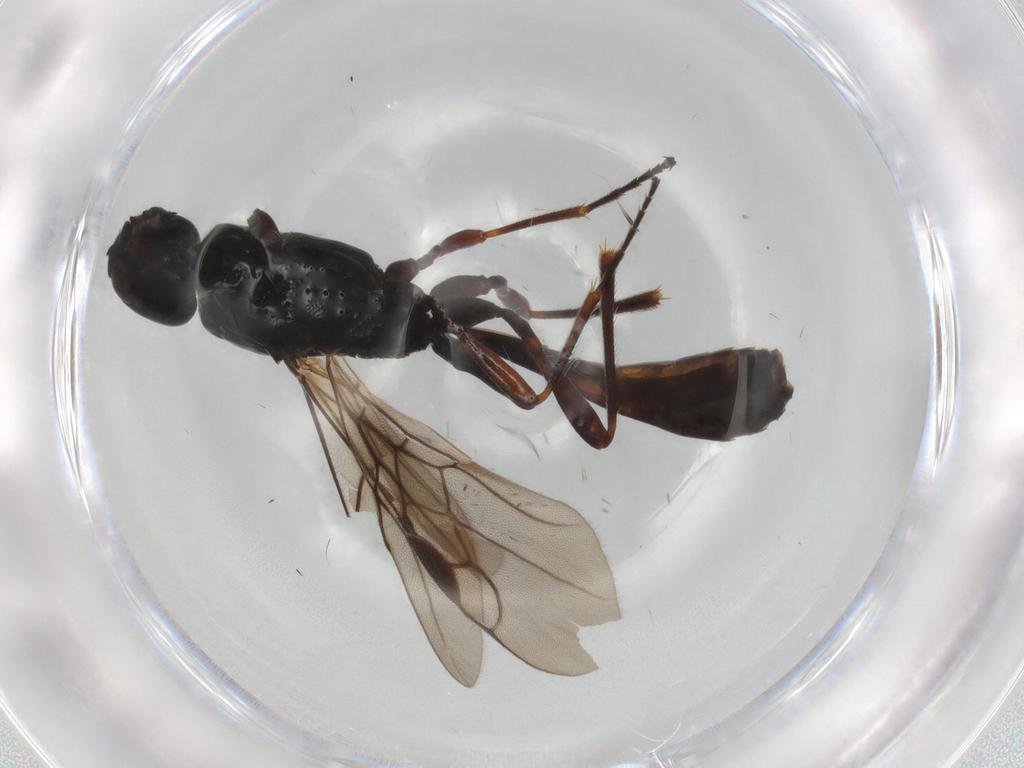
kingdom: Animalia
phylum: Arthropoda
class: Insecta
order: Hymenoptera
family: Braconidae
